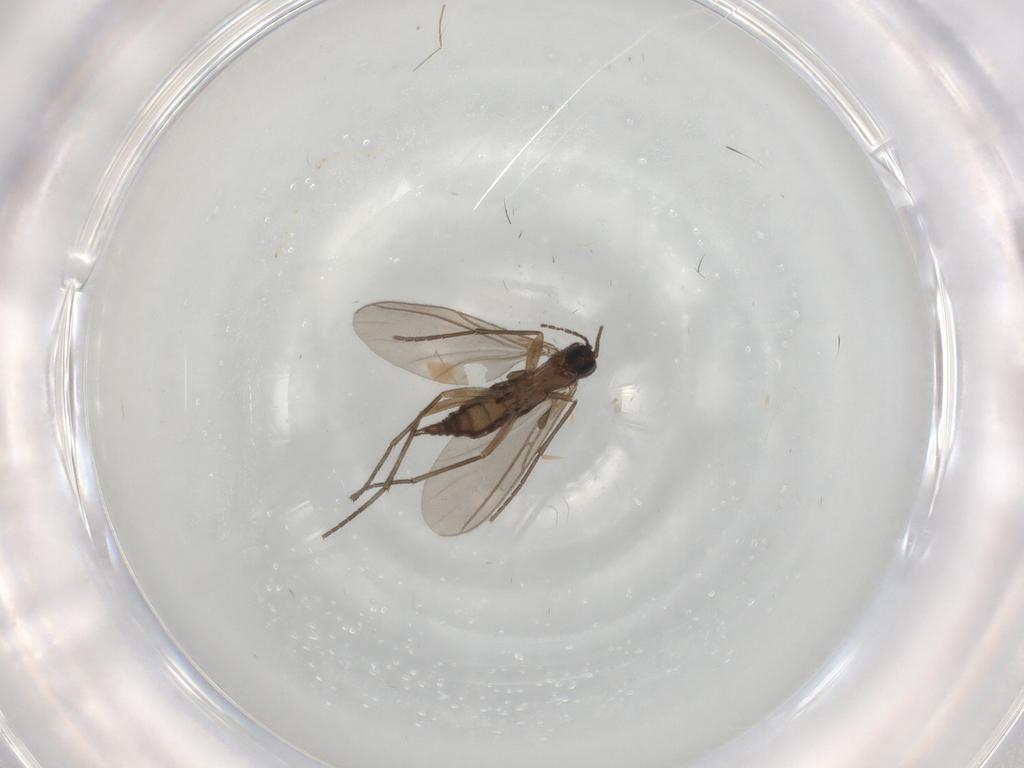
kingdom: Animalia
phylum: Arthropoda
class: Insecta
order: Diptera
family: Sciaridae
